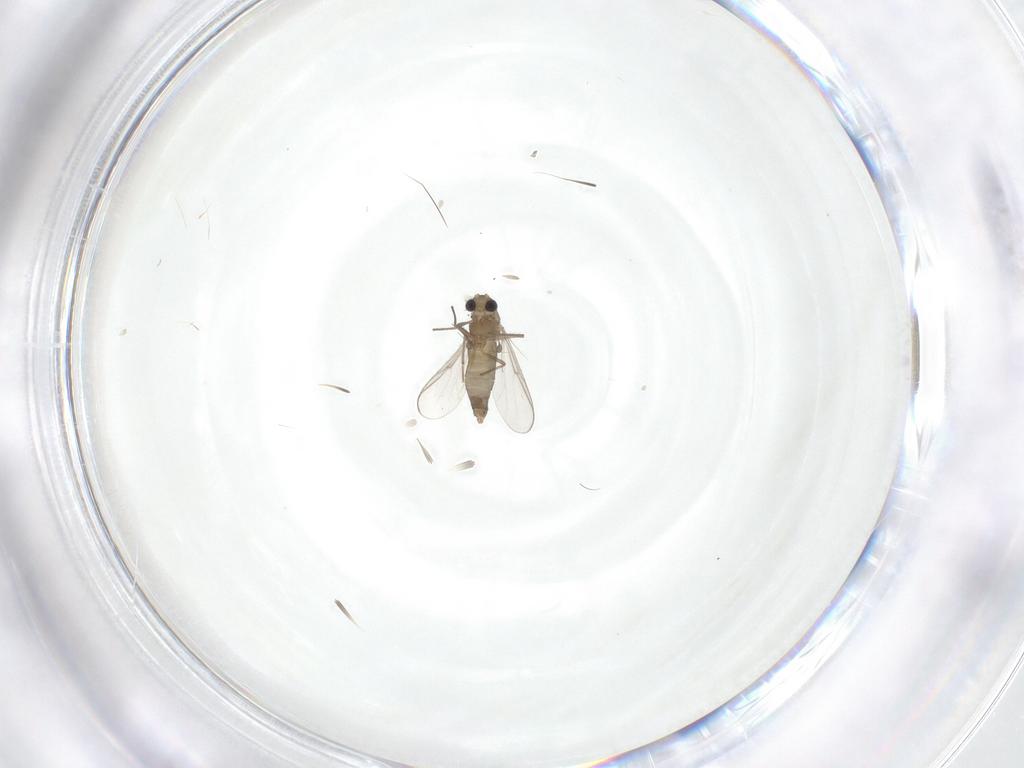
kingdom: Animalia
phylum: Arthropoda
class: Insecta
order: Diptera
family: Chironomidae
